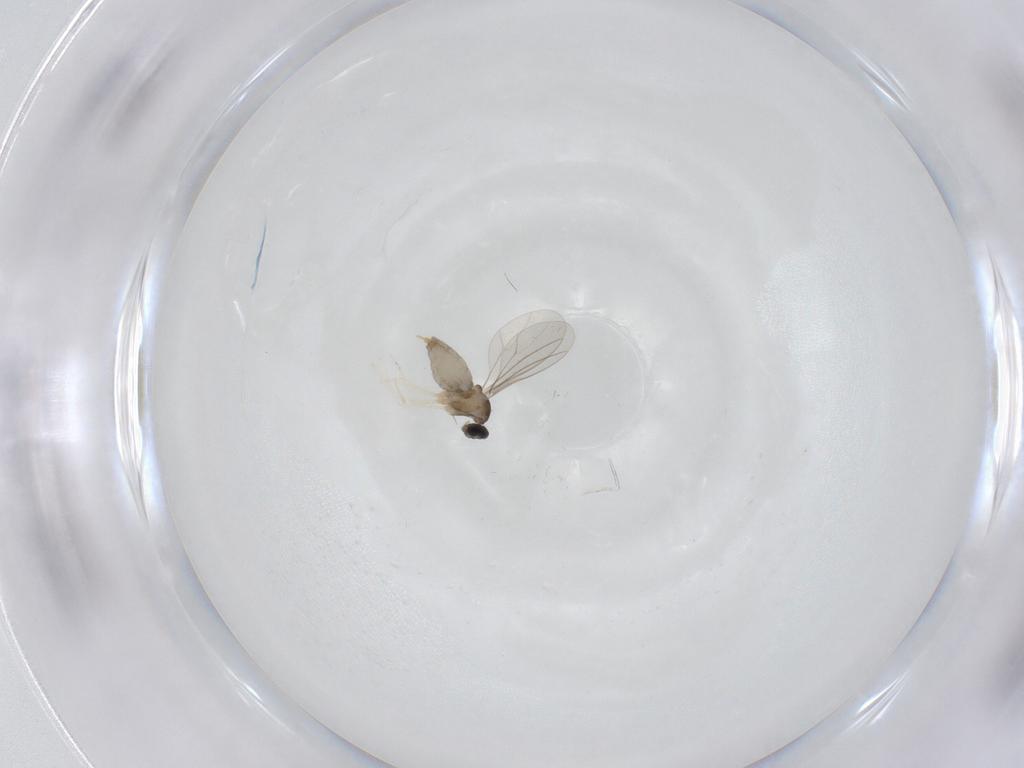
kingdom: Animalia
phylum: Arthropoda
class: Insecta
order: Diptera
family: Cecidomyiidae
